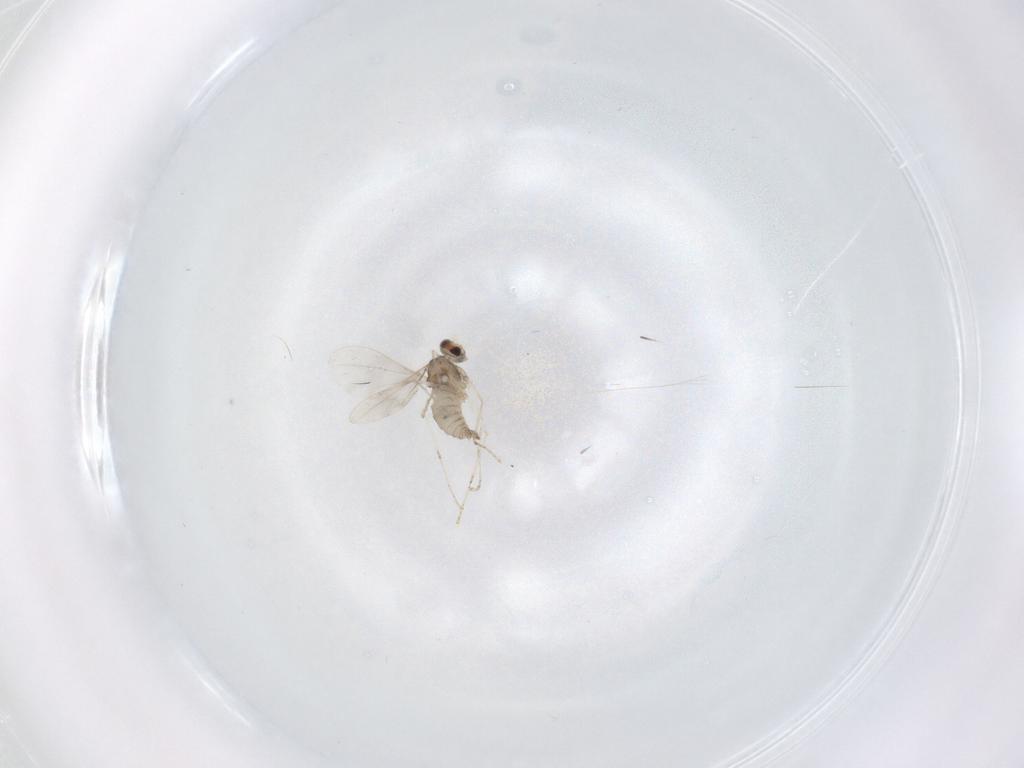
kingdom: Animalia
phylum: Arthropoda
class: Insecta
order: Diptera
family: Cecidomyiidae
